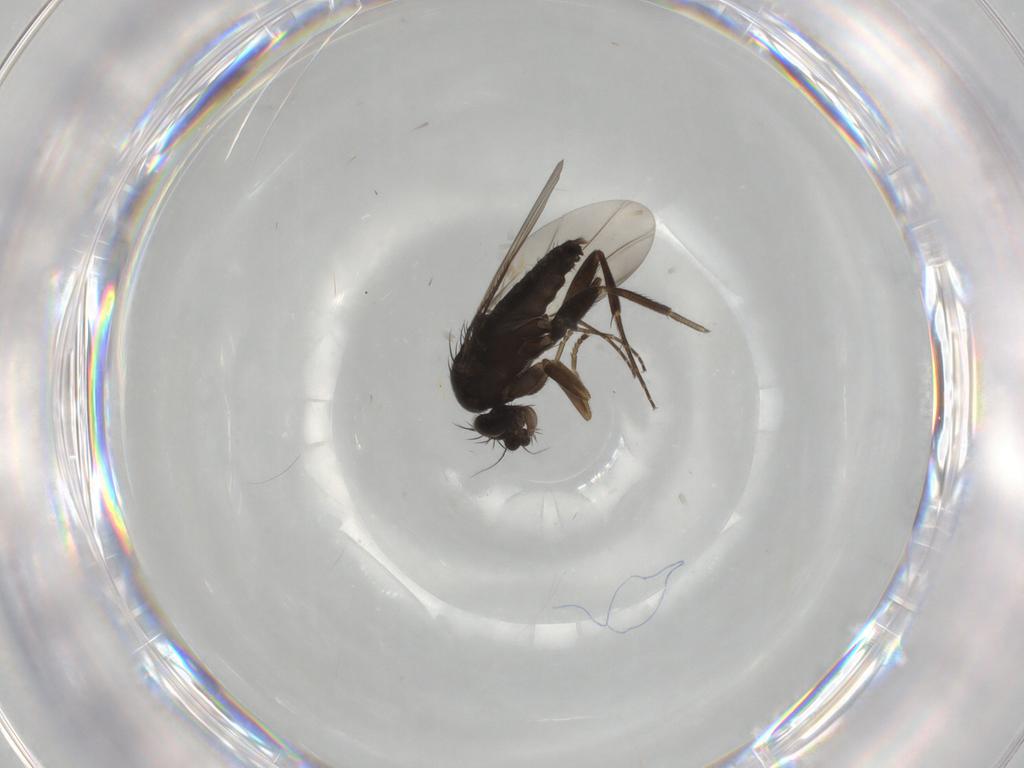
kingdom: Animalia
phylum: Arthropoda
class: Insecta
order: Diptera
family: Phoridae
